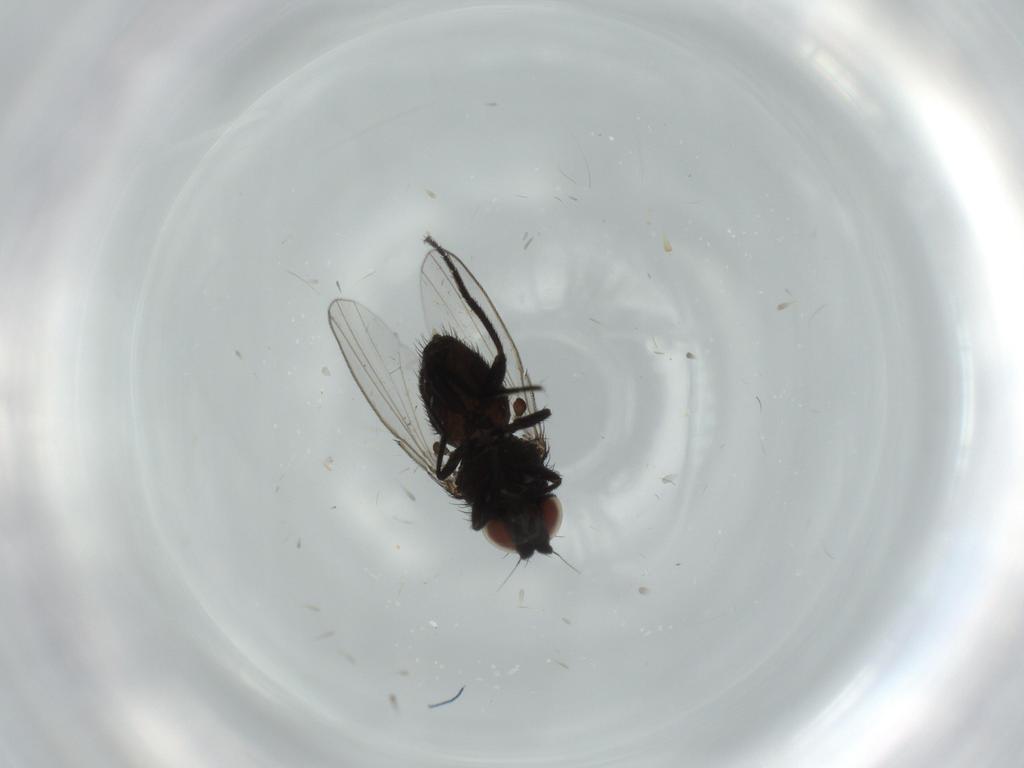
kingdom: Animalia
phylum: Arthropoda
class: Insecta
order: Diptera
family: Milichiidae
